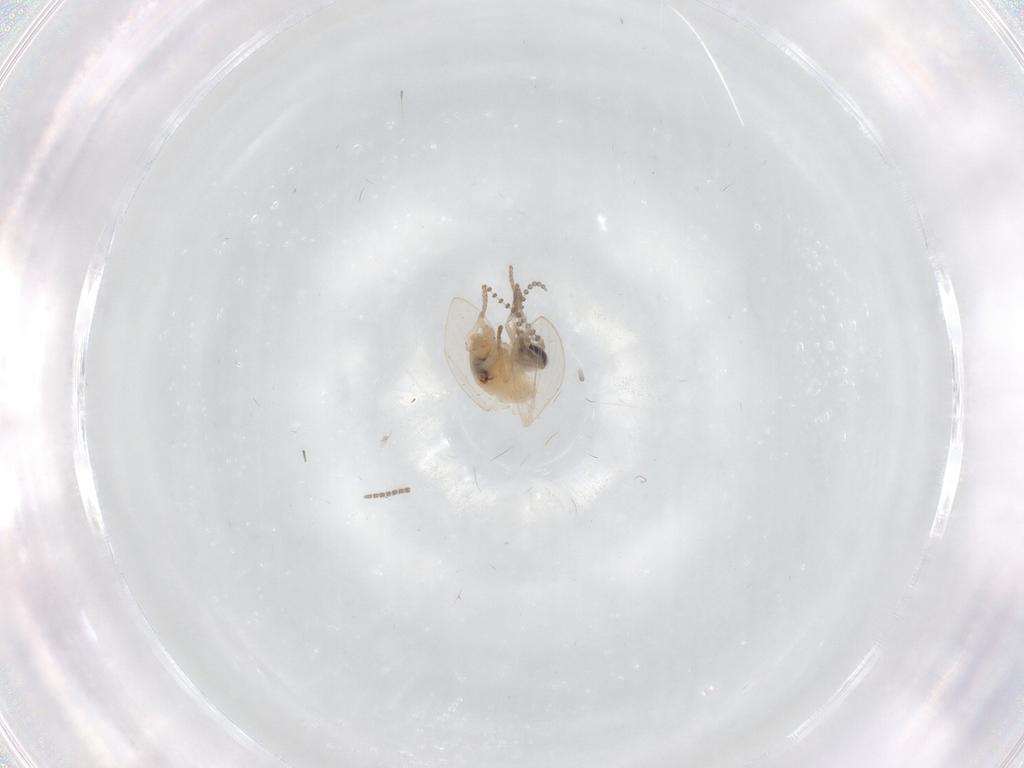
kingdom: Animalia
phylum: Arthropoda
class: Insecta
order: Diptera
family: Psychodidae
